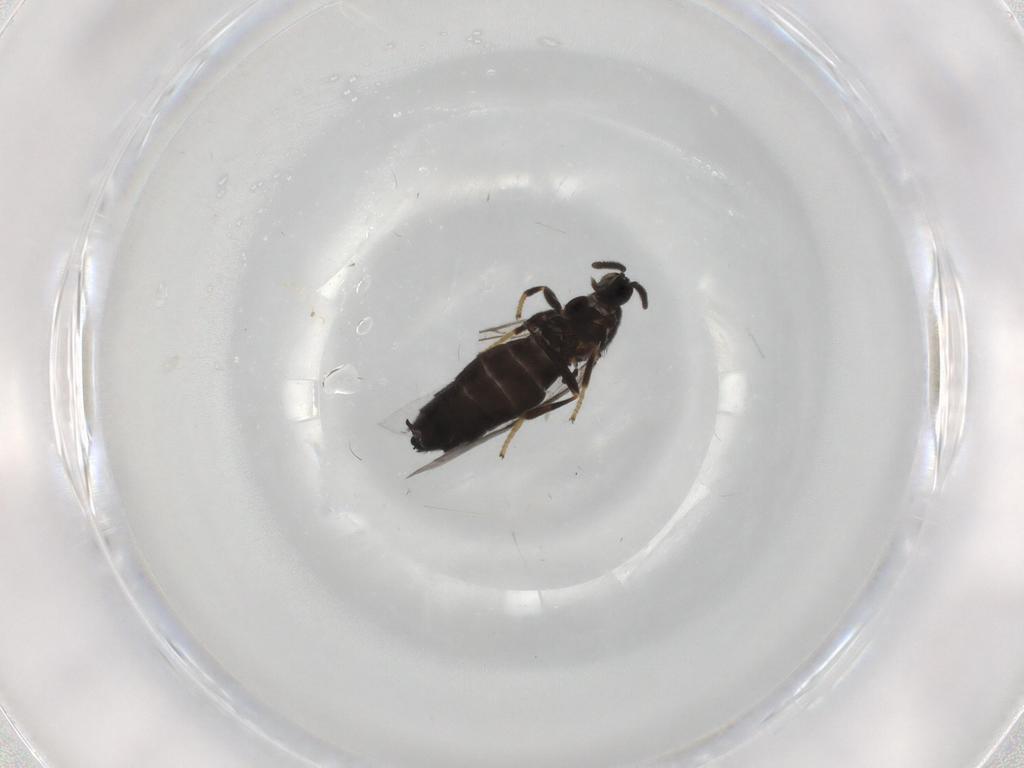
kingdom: Animalia
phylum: Arthropoda
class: Insecta
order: Diptera
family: Scatopsidae
